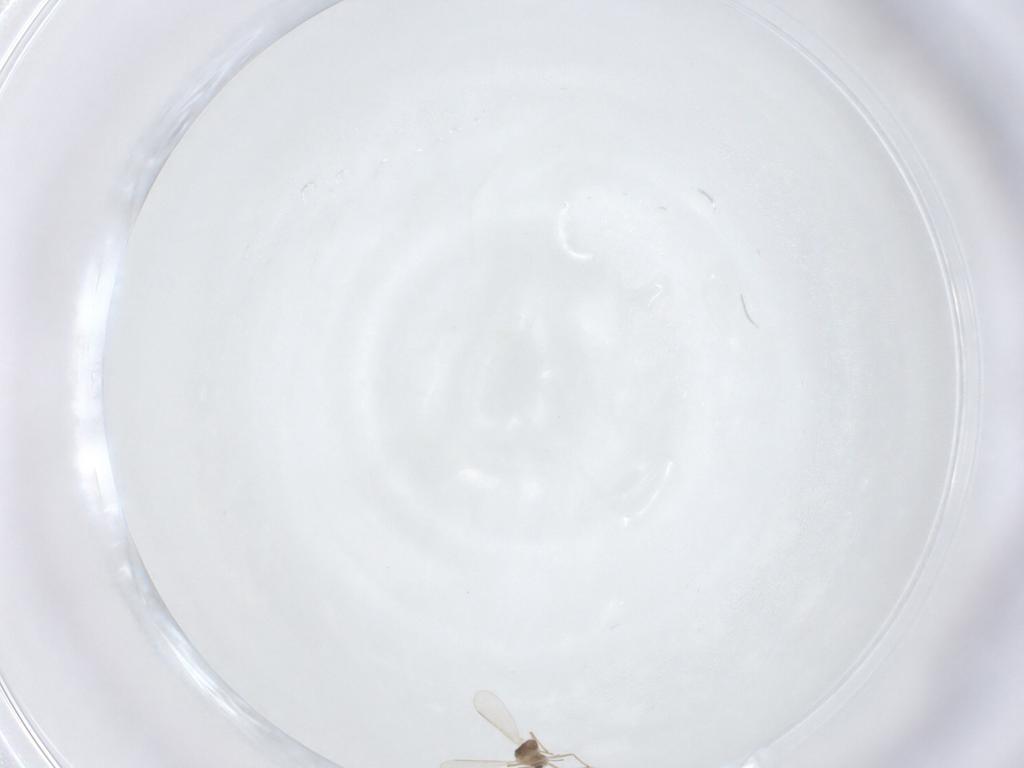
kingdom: Animalia
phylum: Arthropoda
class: Insecta
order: Diptera
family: Chironomidae
